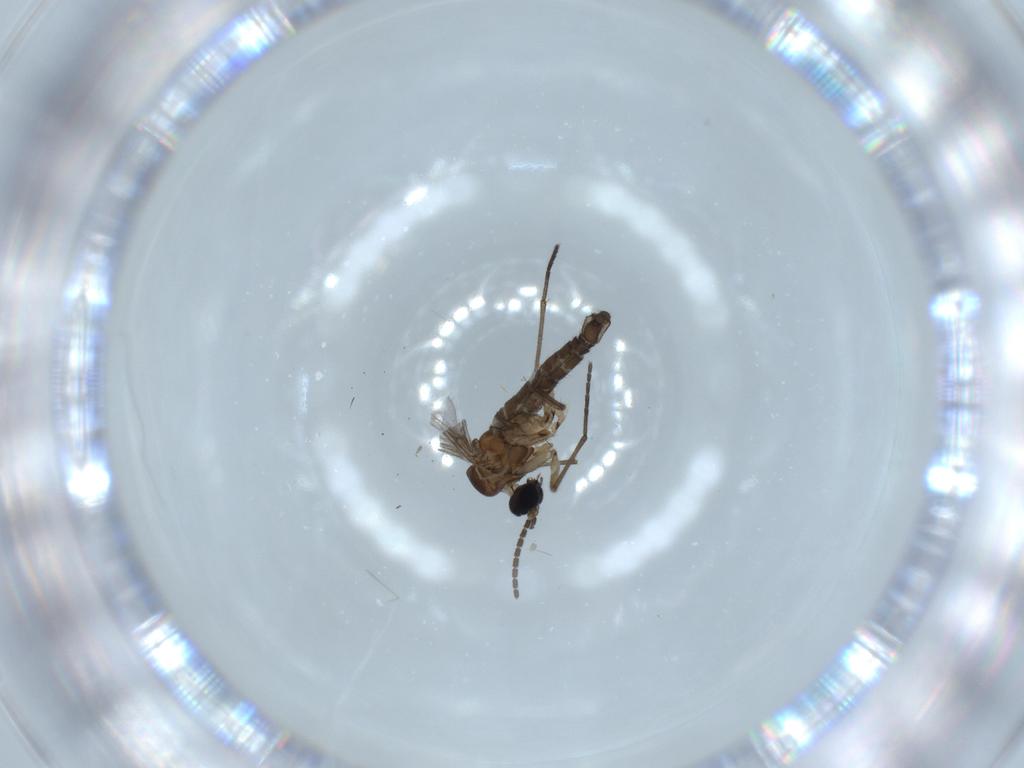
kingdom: Animalia
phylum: Arthropoda
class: Insecta
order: Diptera
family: Sciaridae
